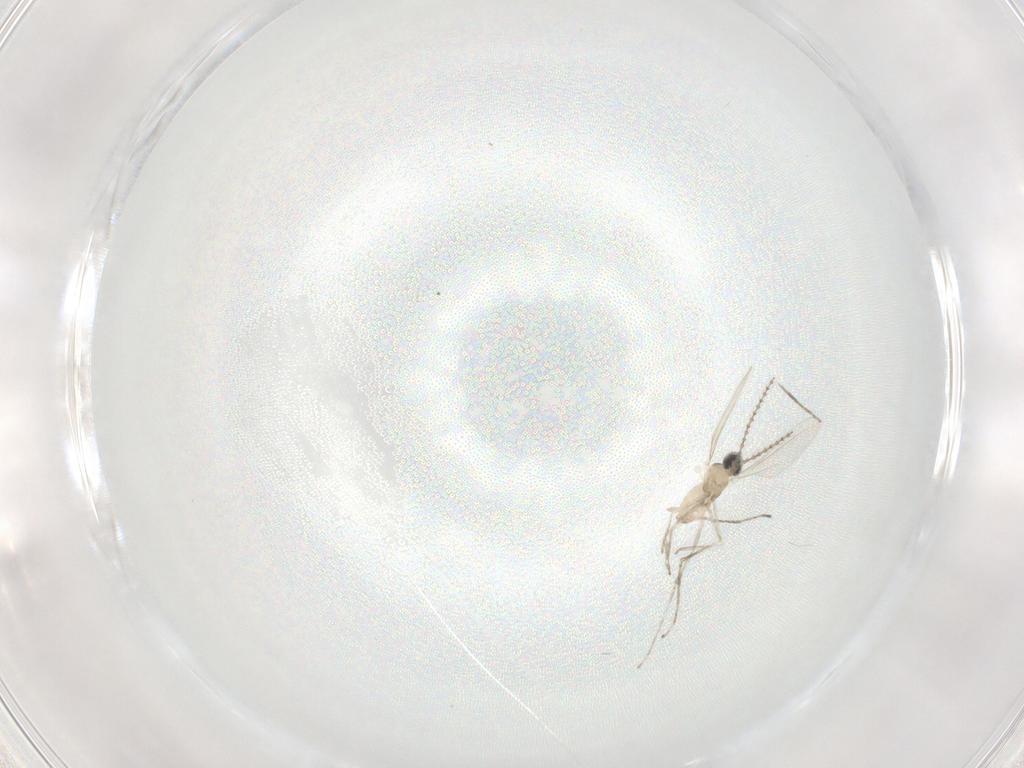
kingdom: Animalia
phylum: Arthropoda
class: Insecta
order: Diptera
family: Cecidomyiidae
